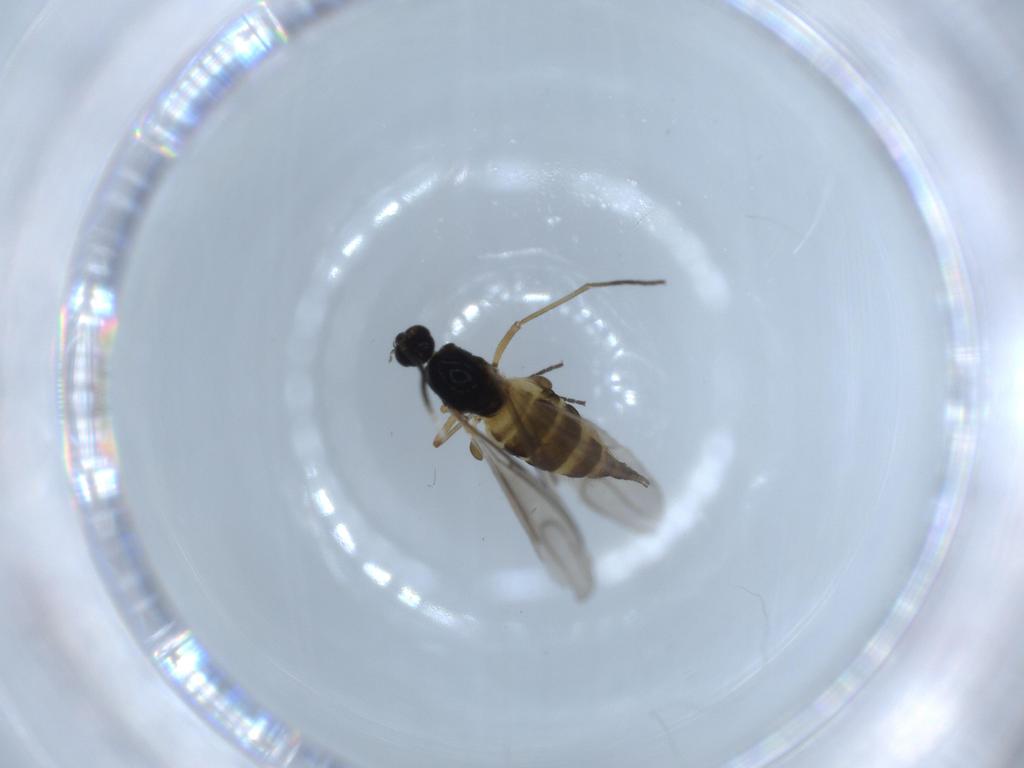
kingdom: Animalia
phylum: Arthropoda
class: Insecta
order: Diptera
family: Sciaridae
